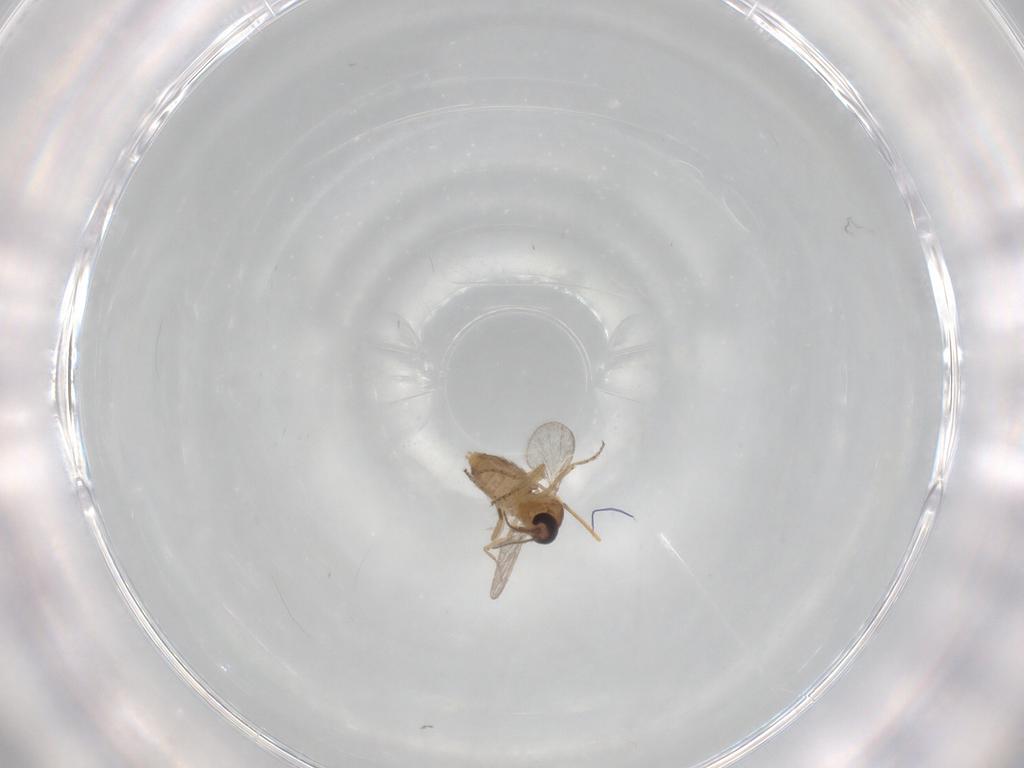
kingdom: Animalia
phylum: Arthropoda
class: Insecta
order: Diptera
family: Ceratopogonidae
